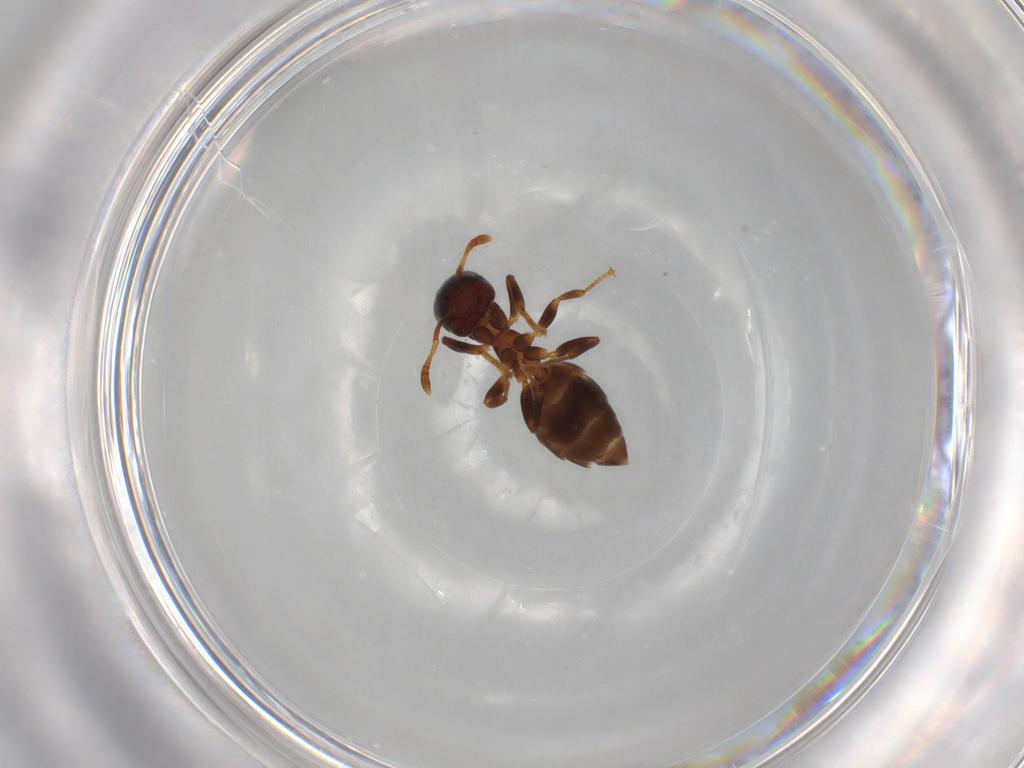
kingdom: Animalia
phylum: Arthropoda
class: Insecta
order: Hymenoptera
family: Formicidae
